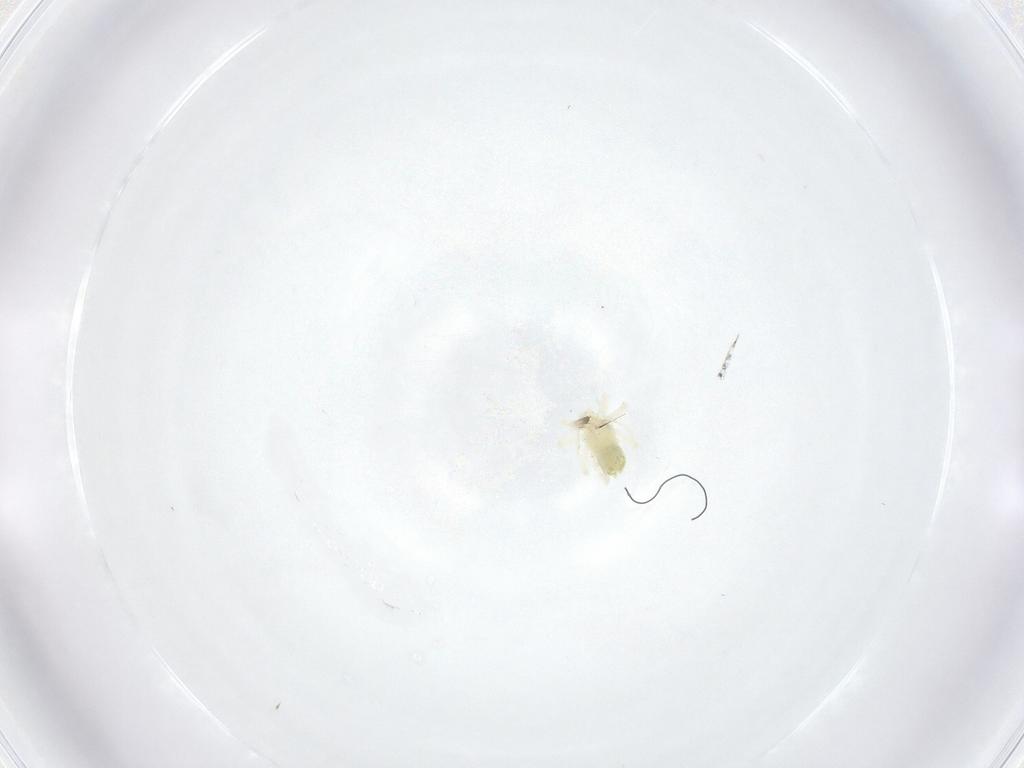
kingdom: Animalia
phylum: Arthropoda
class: Arachnida
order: Trombidiformes
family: Anystidae
